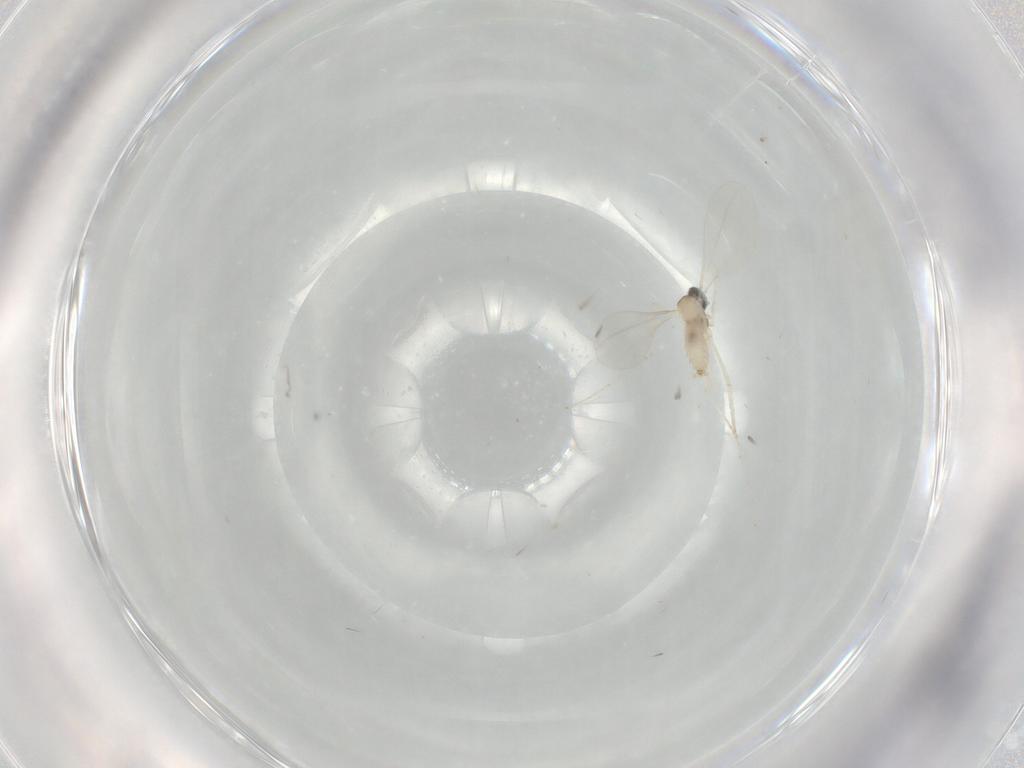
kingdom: Animalia
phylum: Arthropoda
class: Insecta
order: Diptera
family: Cecidomyiidae
